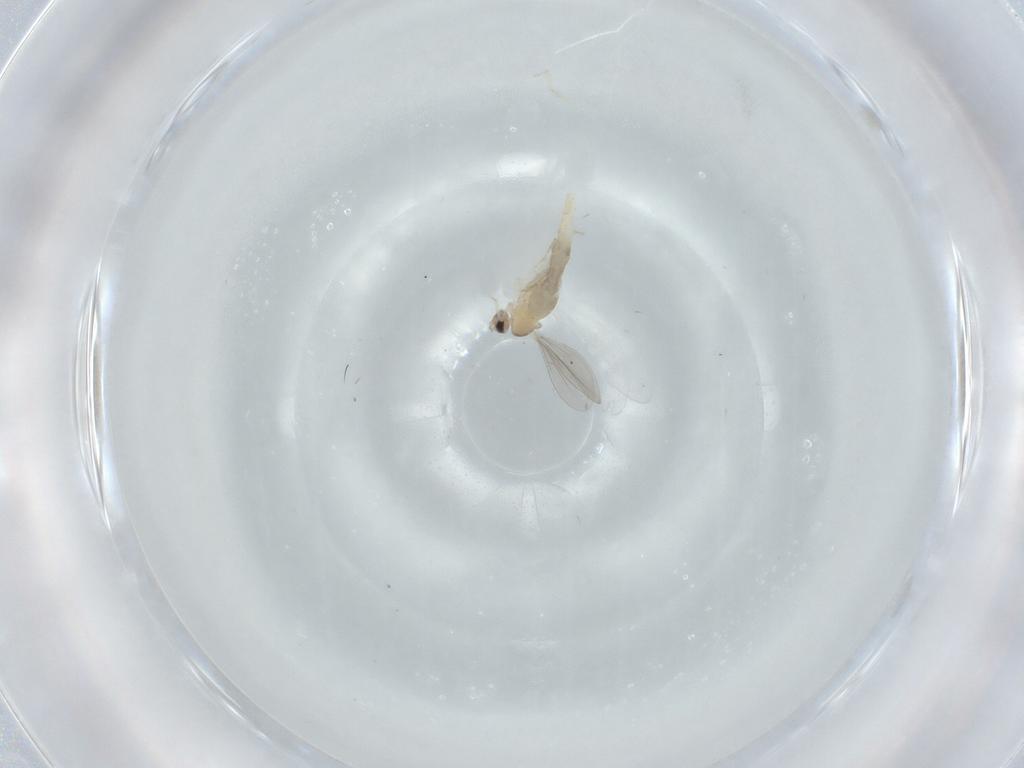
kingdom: Animalia
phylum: Arthropoda
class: Insecta
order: Diptera
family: Cecidomyiidae
